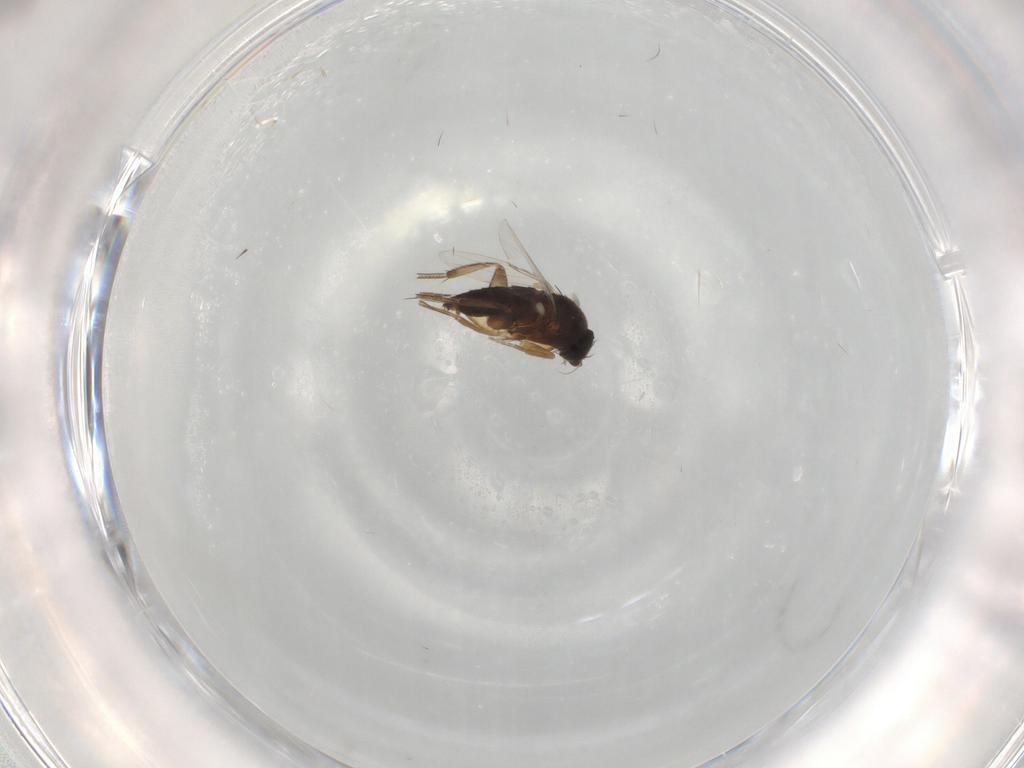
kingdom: Animalia
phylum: Arthropoda
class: Insecta
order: Diptera
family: Phoridae
